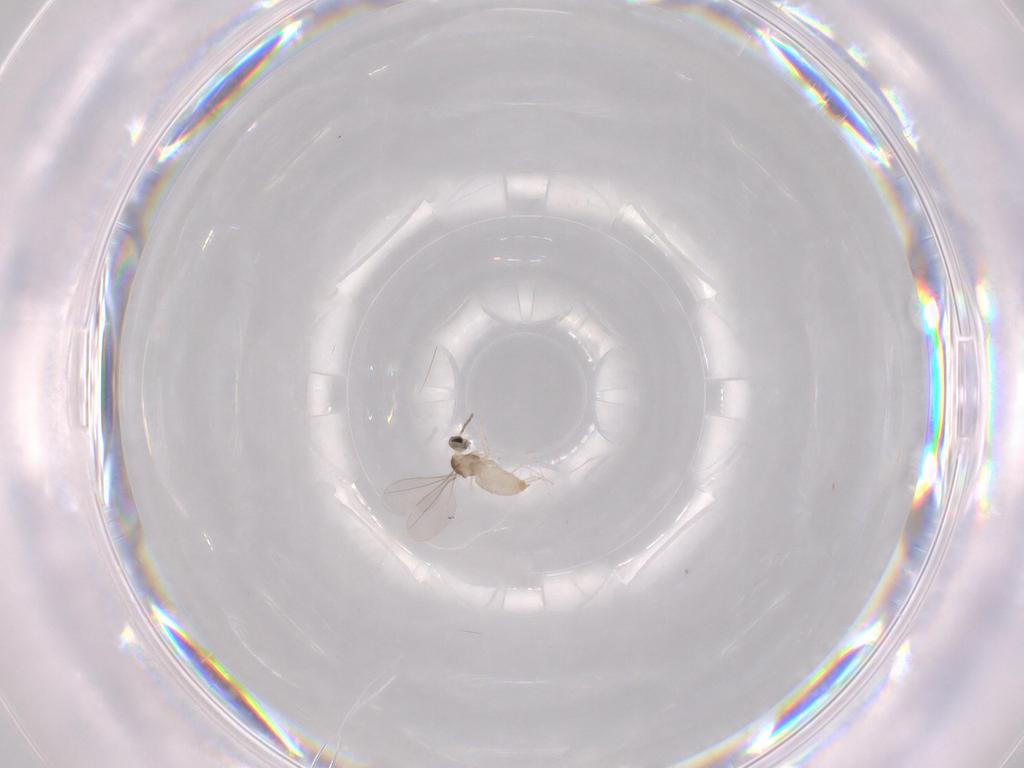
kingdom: Animalia
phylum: Arthropoda
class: Insecta
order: Diptera
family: Cecidomyiidae
